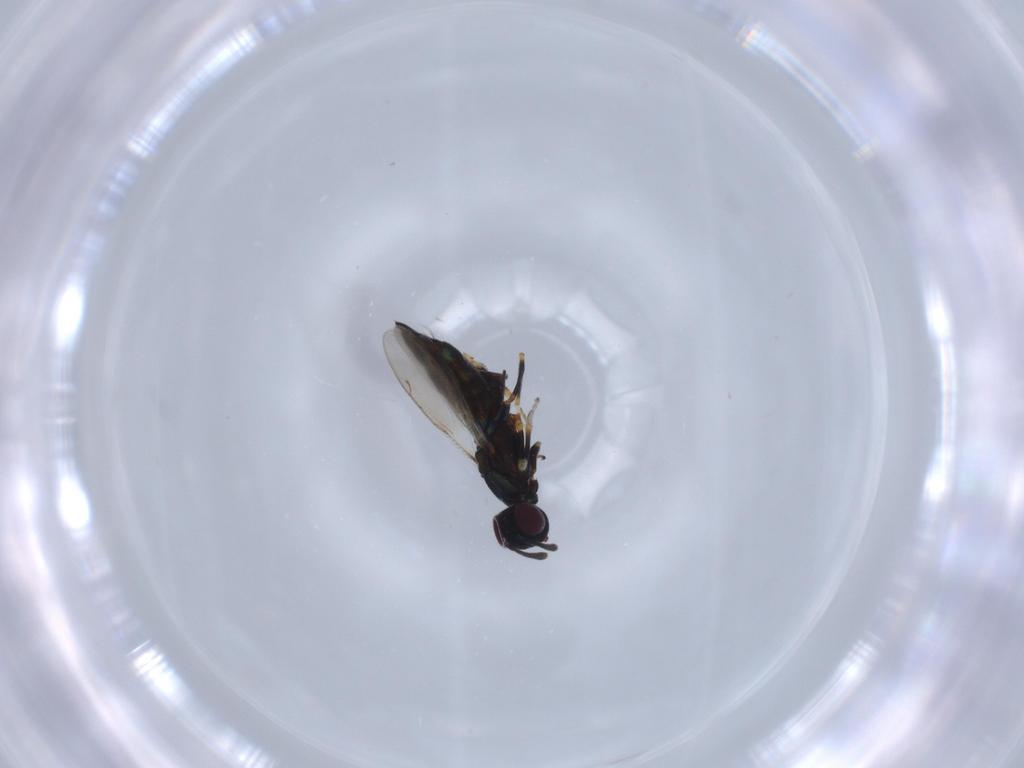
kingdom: Animalia
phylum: Arthropoda
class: Insecta
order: Hymenoptera
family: Eupelmidae
